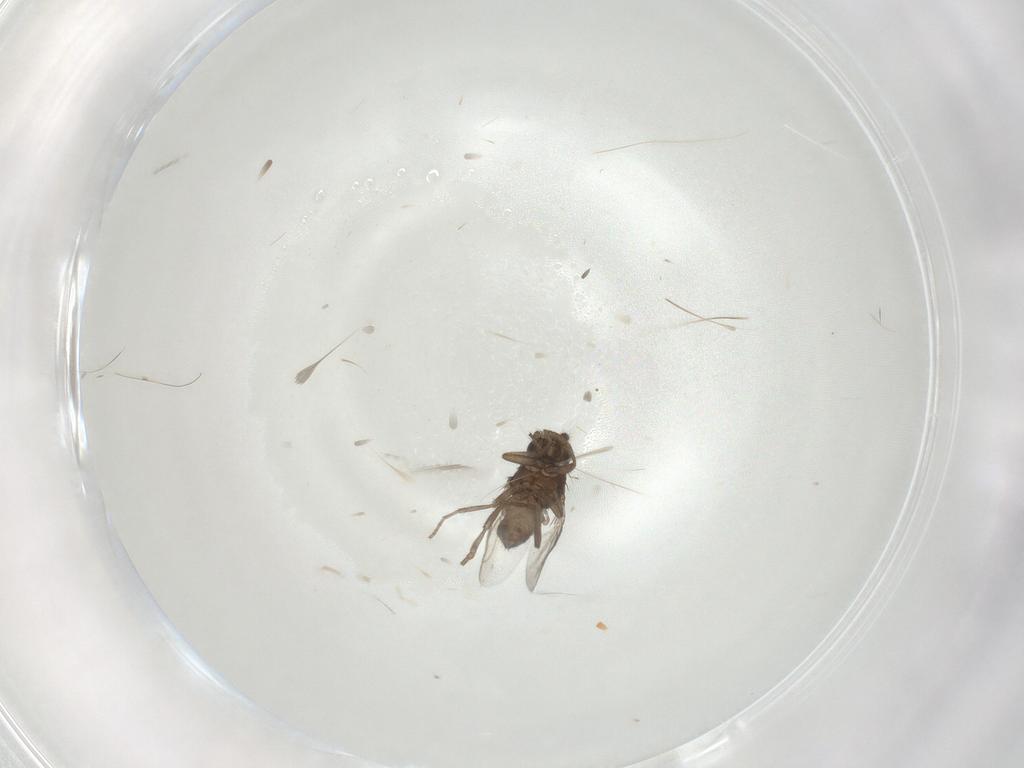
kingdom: Animalia
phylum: Arthropoda
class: Insecta
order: Diptera
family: Sphaeroceridae
